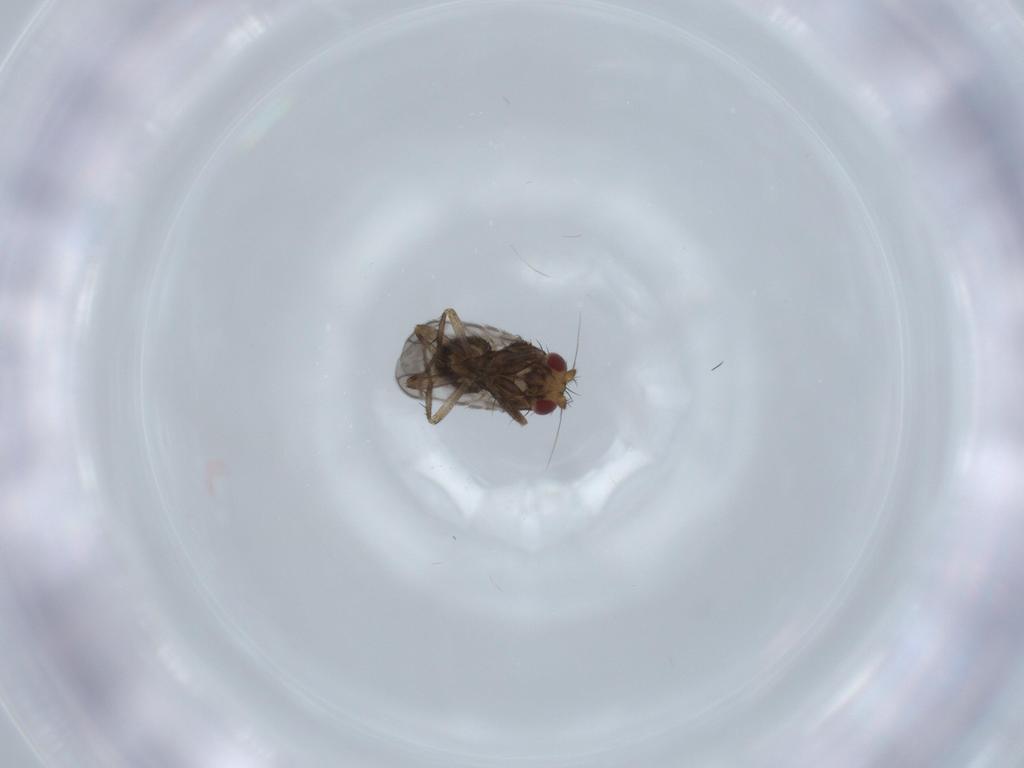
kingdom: Animalia
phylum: Arthropoda
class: Insecta
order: Diptera
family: Sphaeroceridae
